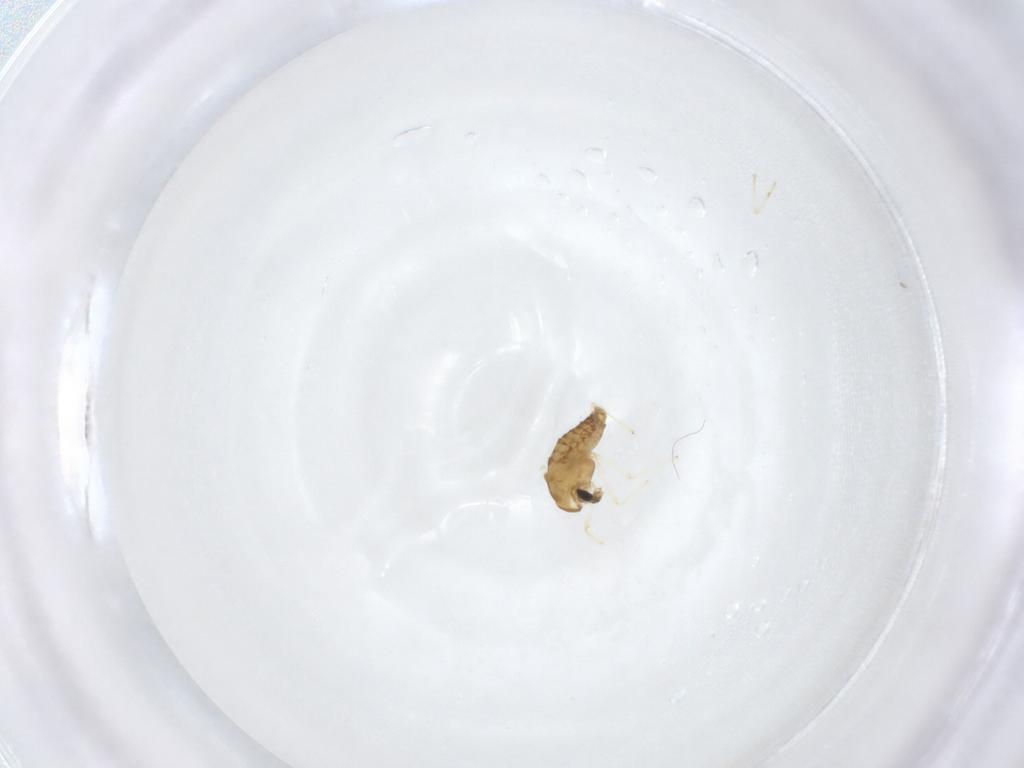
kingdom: Animalia
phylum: Arthropoda
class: Insecta
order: Diptera
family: Chironomidae
